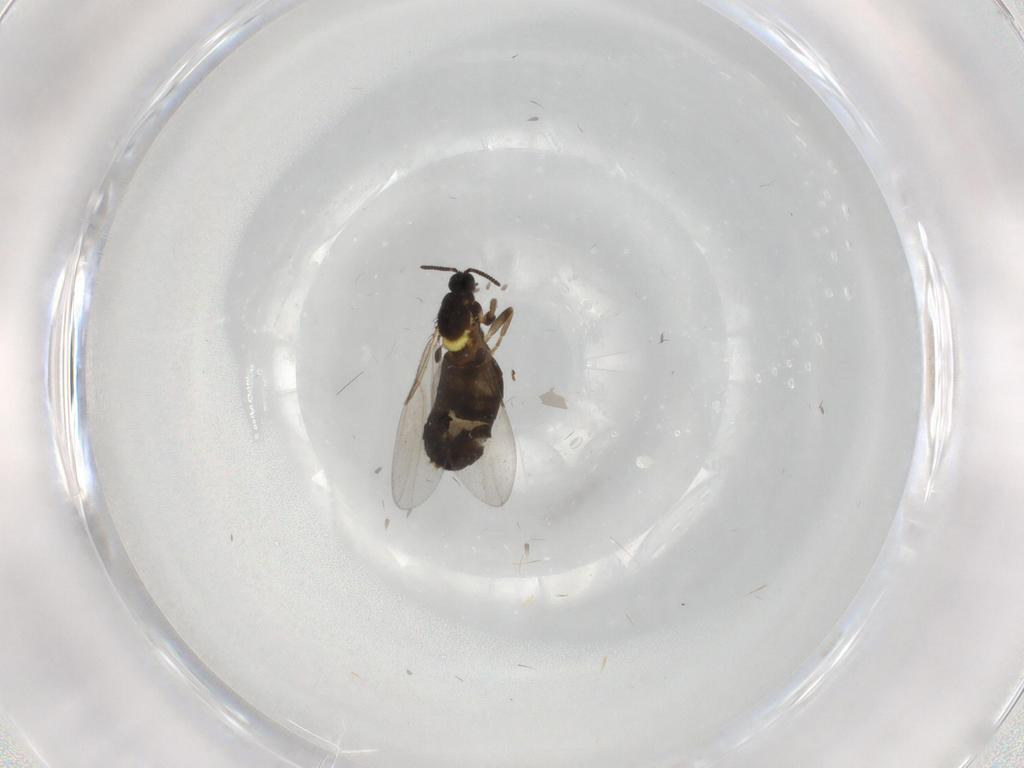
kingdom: Animalia
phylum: Arthropoda
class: Insecta
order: Diptera
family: Scatopsidae
